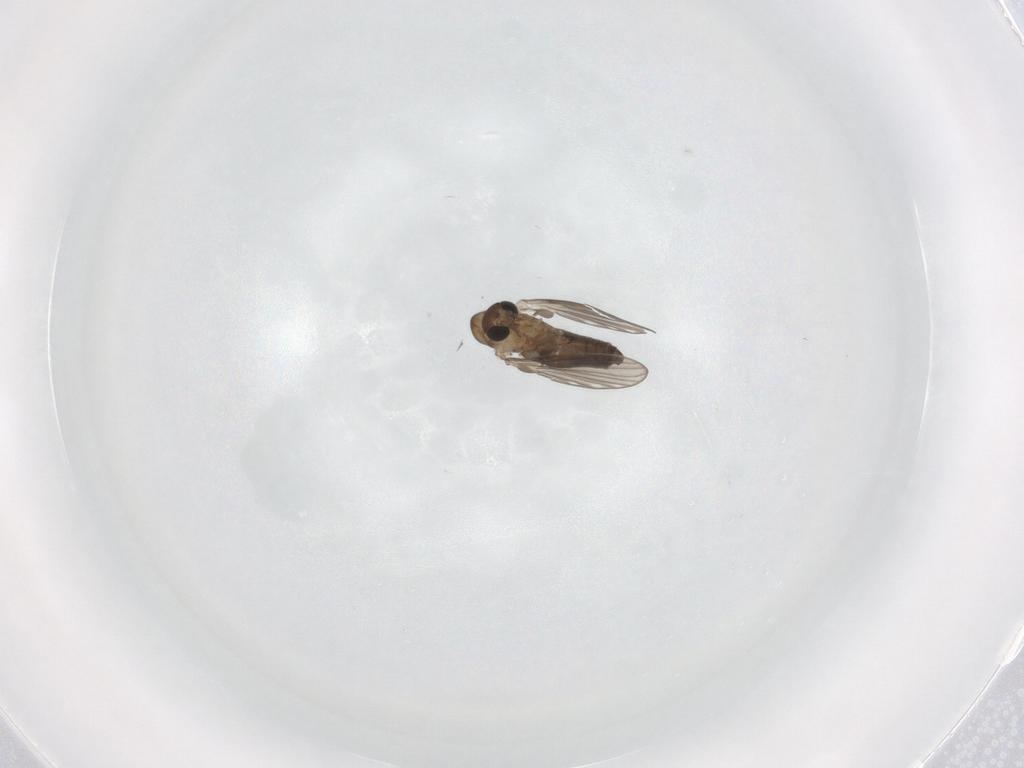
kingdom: Animalia
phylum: Arthropoda
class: Insecta
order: Diptera
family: Psychodidae
